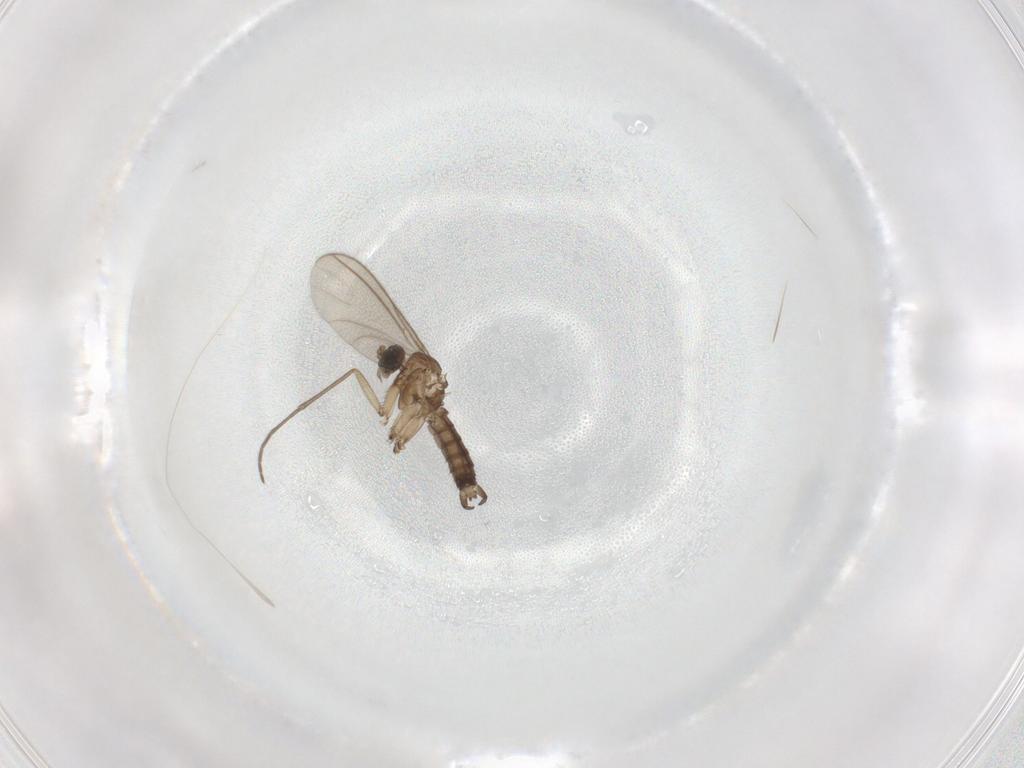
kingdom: Animalia
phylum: Arthropoda
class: Insecta
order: Diptera
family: Sciaridae
